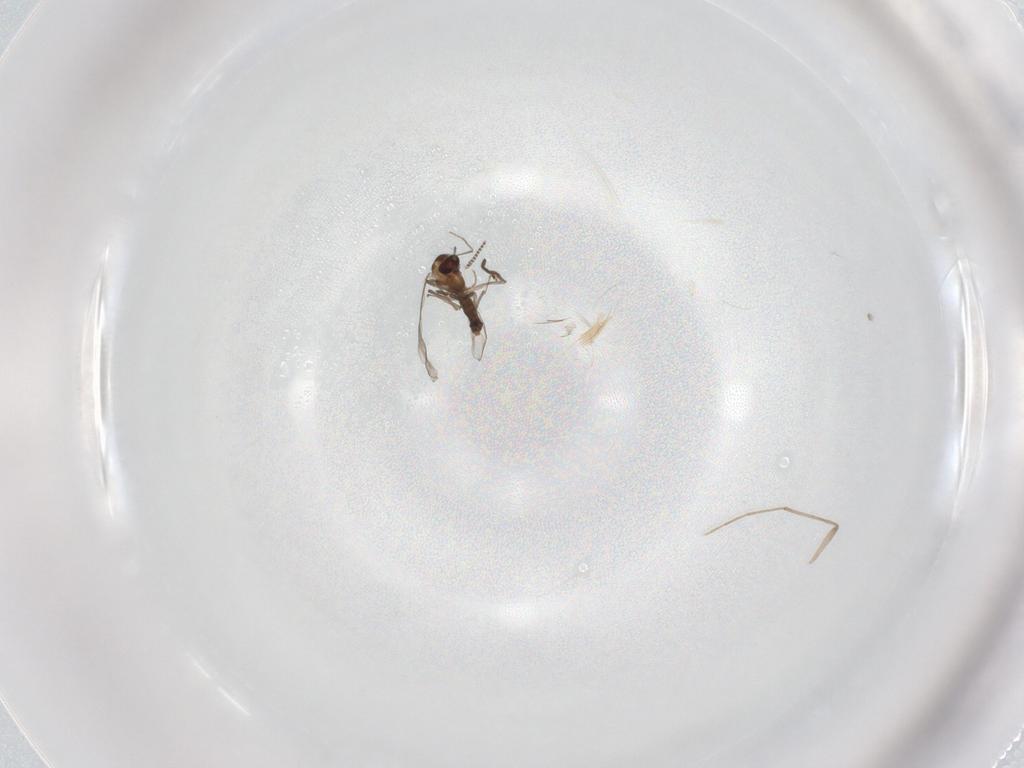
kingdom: Animalia
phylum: Arthropoda
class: Insecta
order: Diptera
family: Chironomidae
